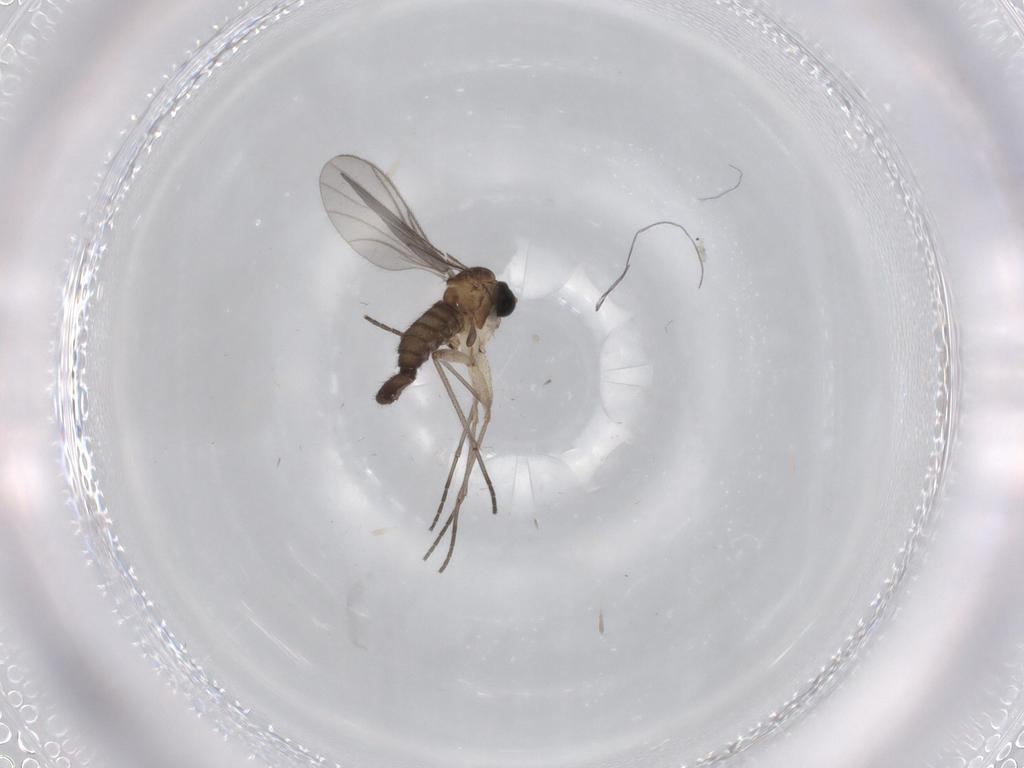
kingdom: Animalia
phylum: Arthropoda
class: Insecta
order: Diptera
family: Sciaridae
